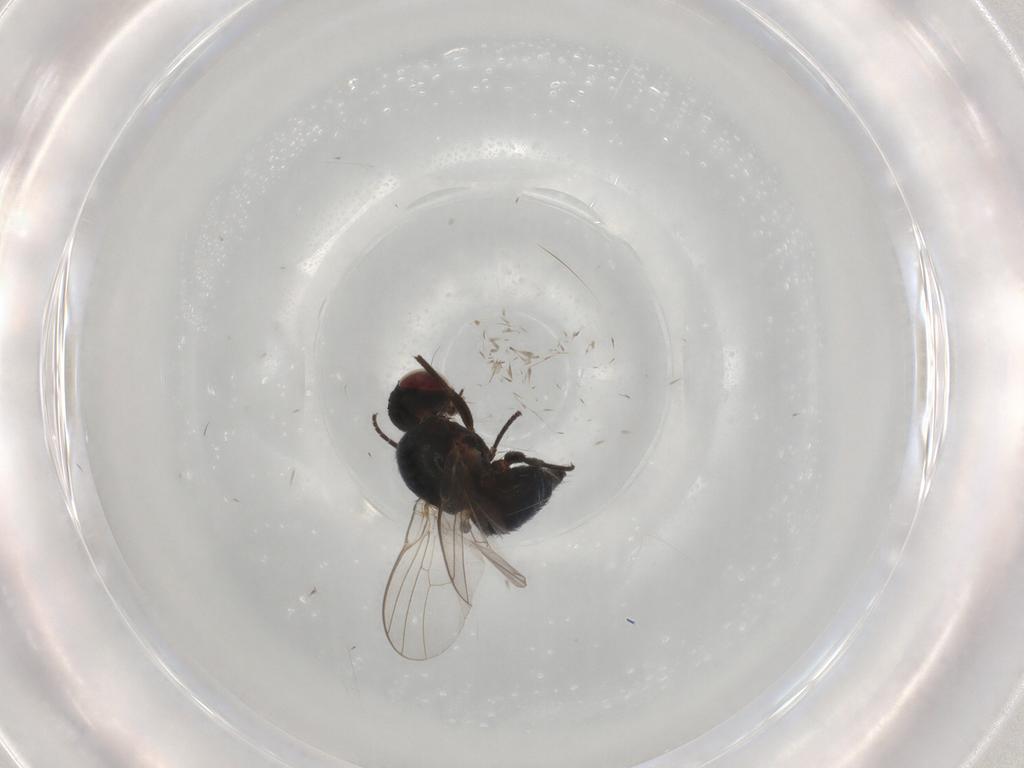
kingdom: Animalia
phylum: Arthropoda
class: Insecta
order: Diptera
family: Agromyzidae
